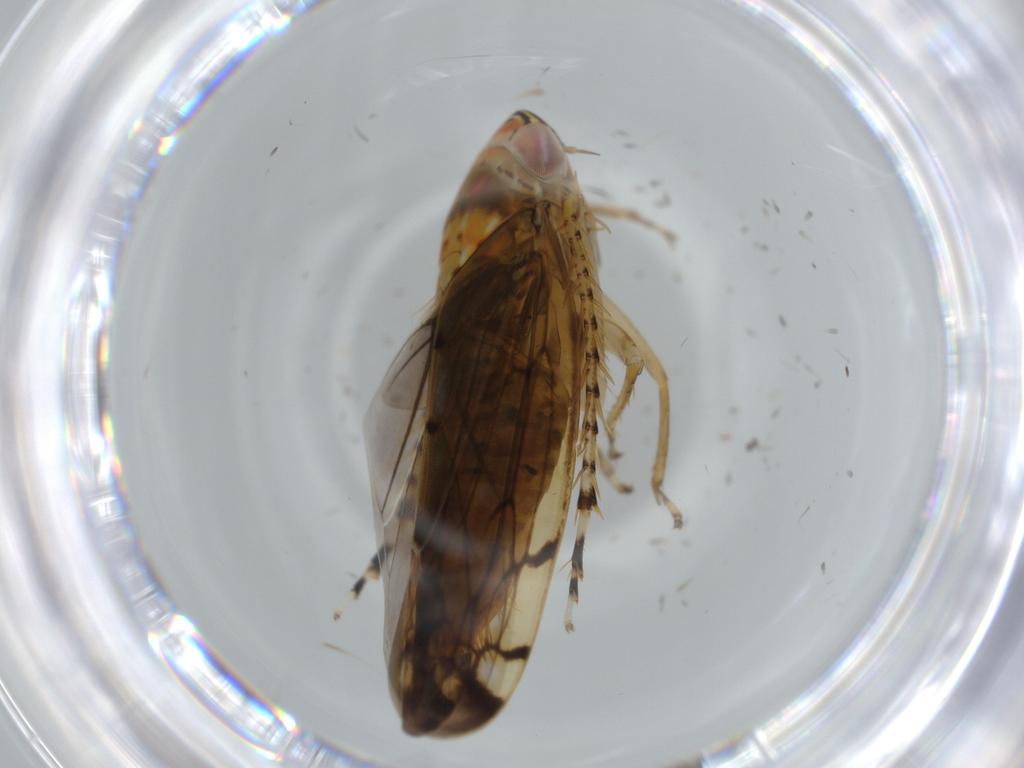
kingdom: Animalia
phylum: Arthropoda
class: Insecta
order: Hemiptera
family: Cicadellidae
